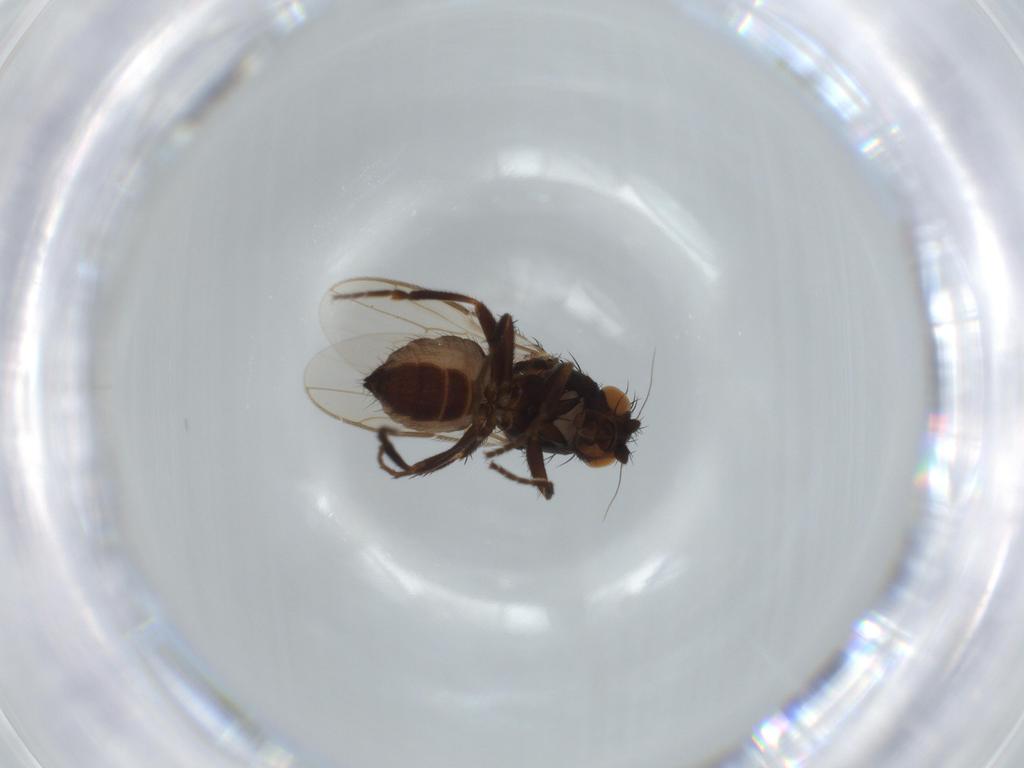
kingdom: Animalia
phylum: Arthropoda
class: Insecta
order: Diptera
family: Sphaeroceridae
